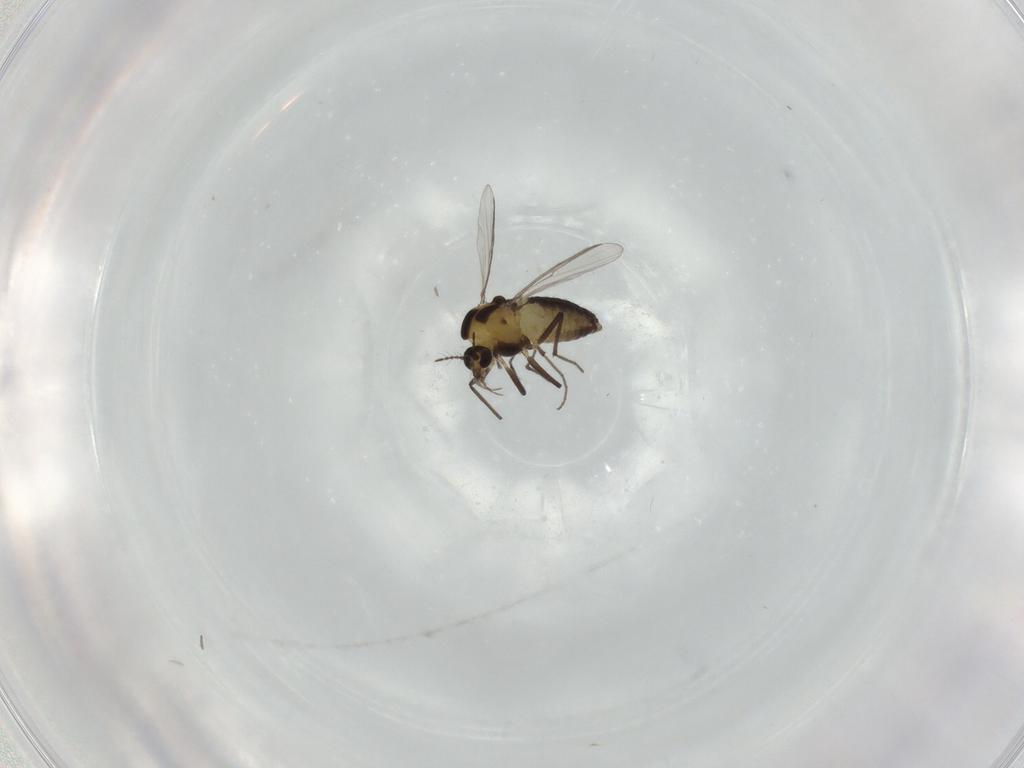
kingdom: Animalia
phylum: Arthropoda
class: Insecta
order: Diptera
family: Chironomidae
